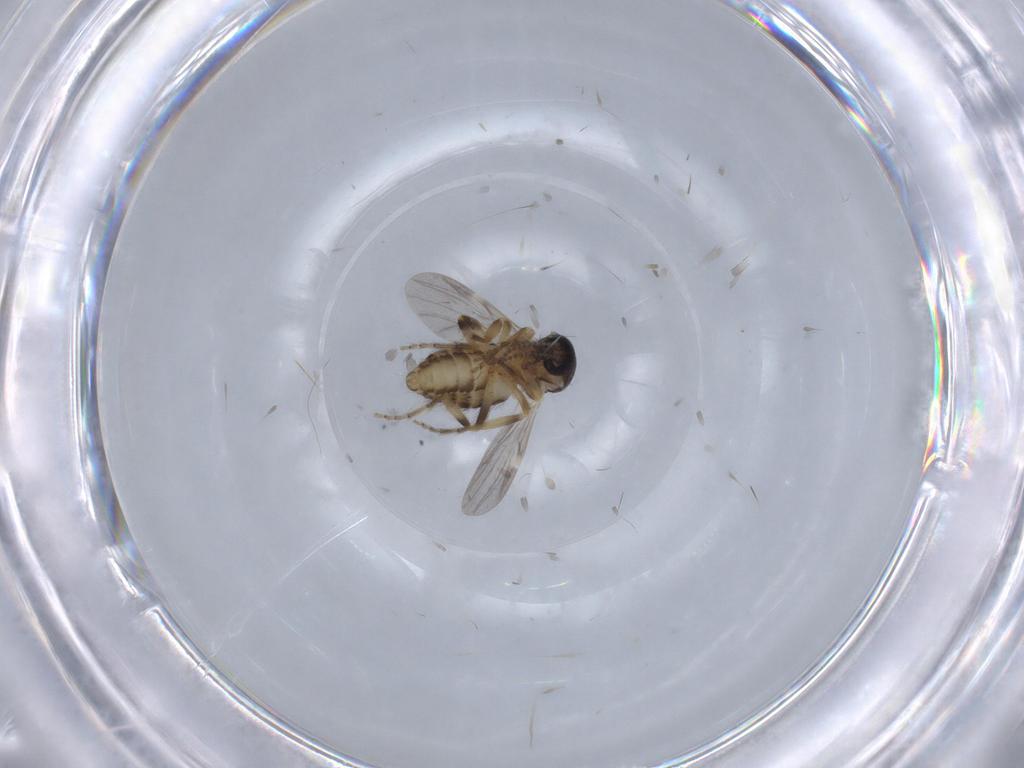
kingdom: Animalia
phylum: Arthropoda
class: Insecta
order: Diptera
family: Ceratopogonidae
